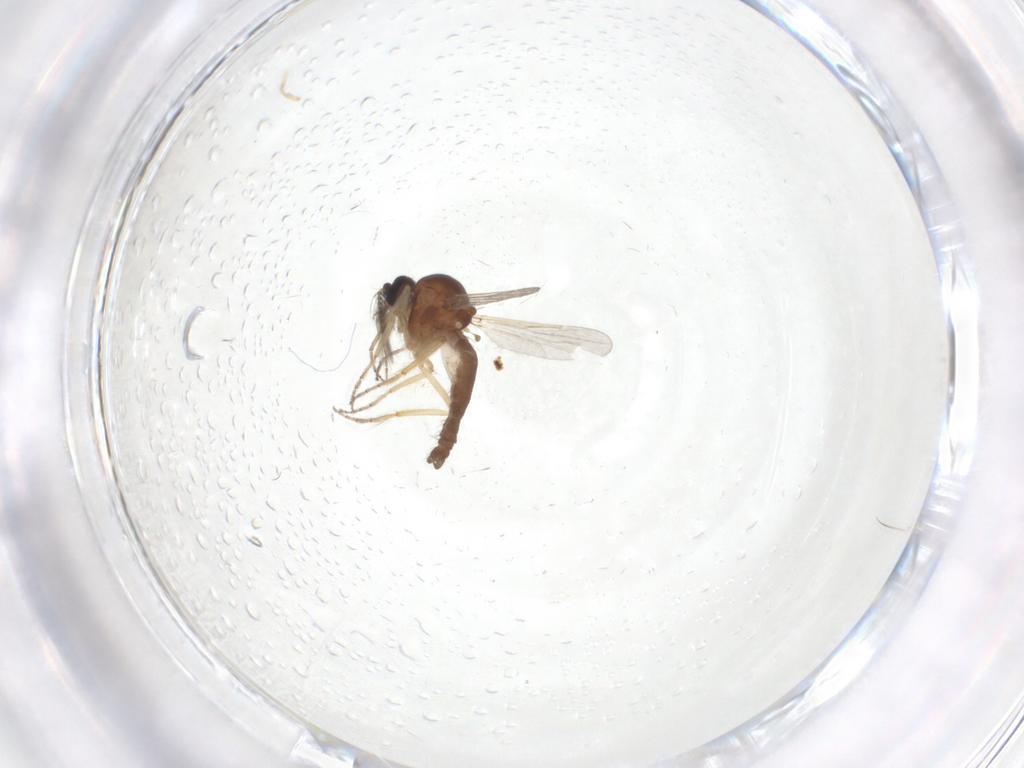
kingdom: Animalia
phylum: Arthropoda
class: Insecta
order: Diptera
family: Ceratopogonidae
